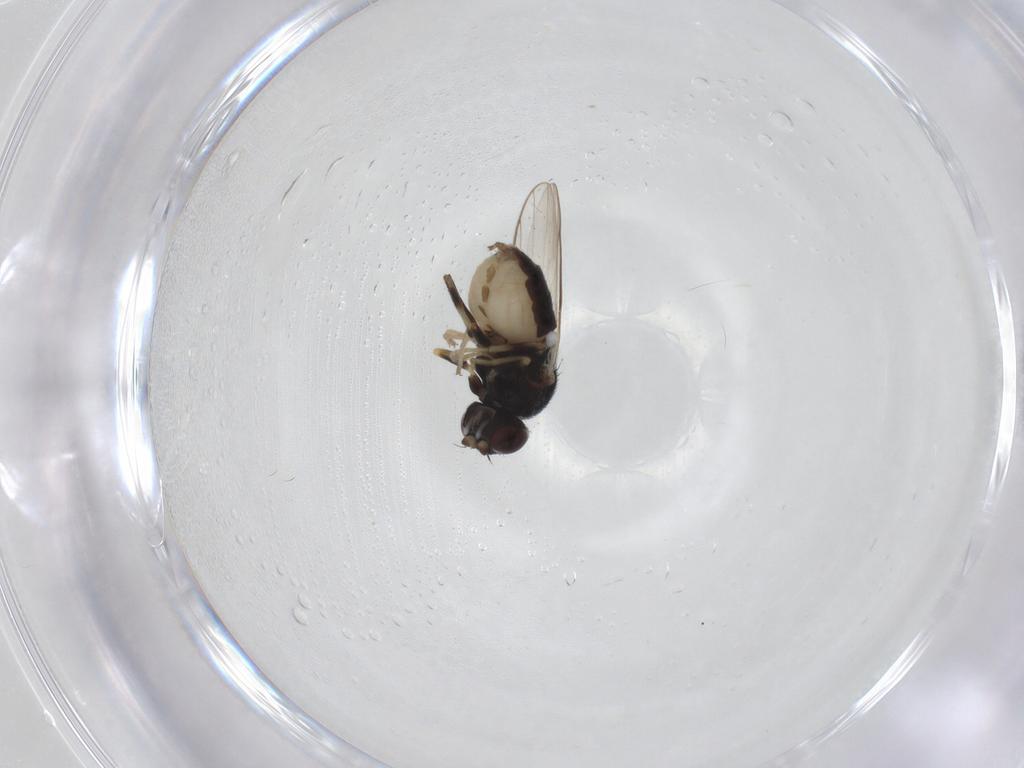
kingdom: Animalia
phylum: Arthropoda
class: Insecta
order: Diptera
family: Chloropidae
